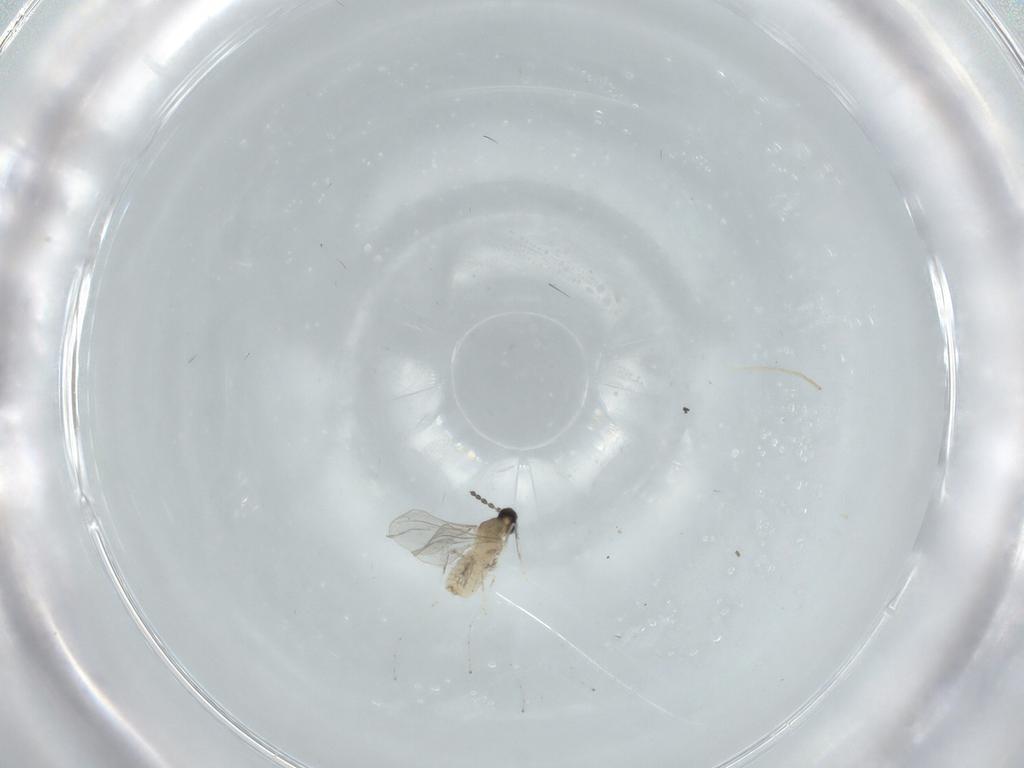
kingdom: Animalia
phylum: Arthropoda
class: Insecta
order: Diptera
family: Cecidomyiidae
